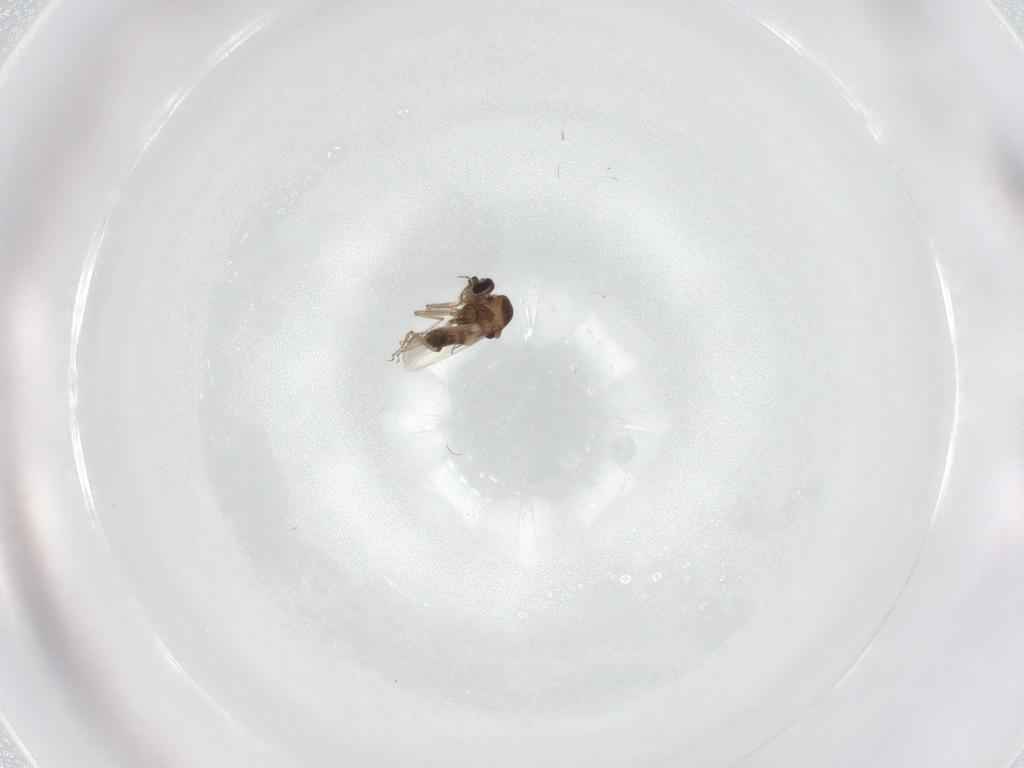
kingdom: Animalia
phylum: Arthropoda
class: Insecta
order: Diptera
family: Ceratopogonidae
